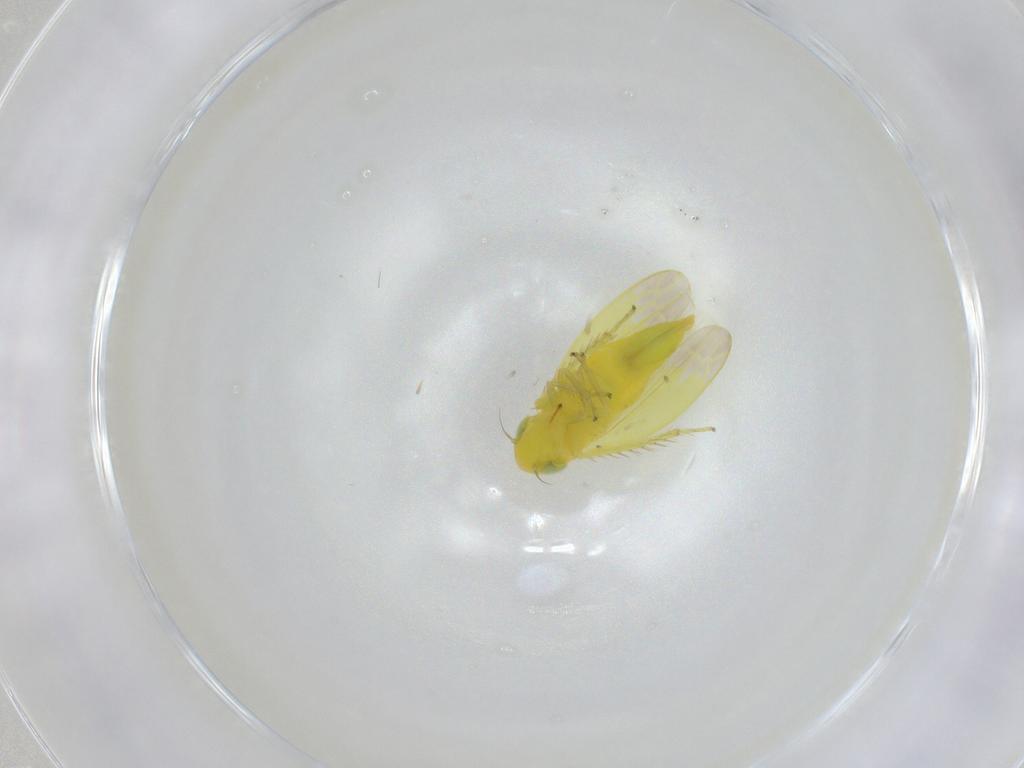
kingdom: Animalia
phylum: Arthropoda
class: Insecta
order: Hemiptera
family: Cicadellidae
